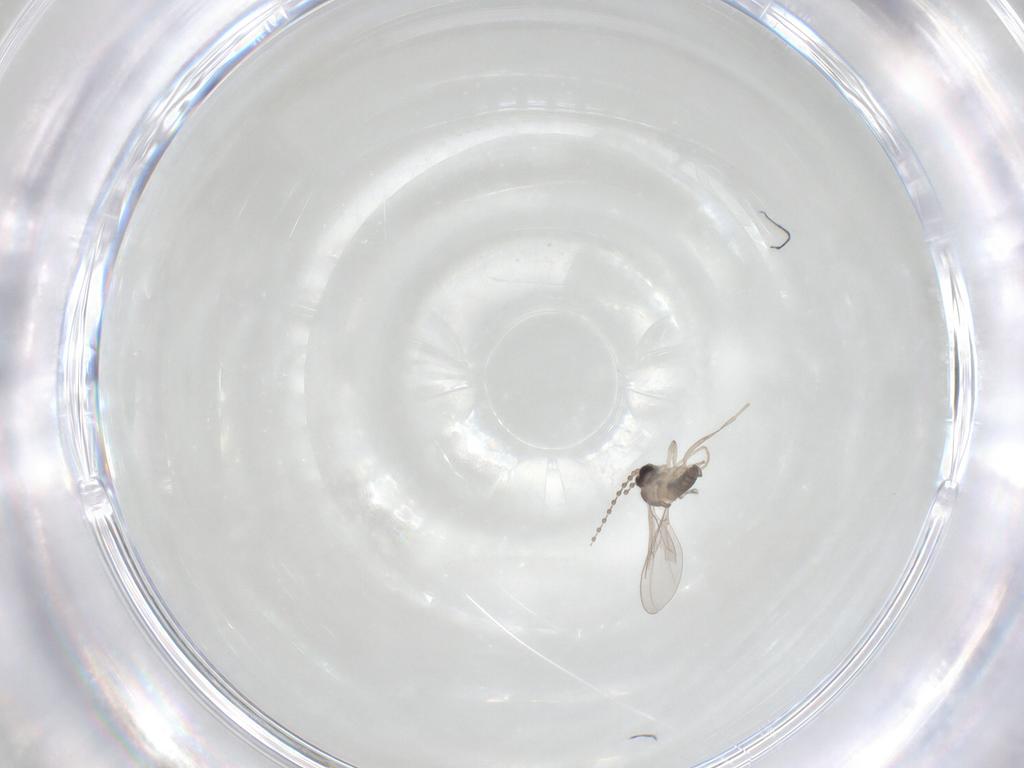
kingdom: Animalia
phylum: Arthropoda
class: Insecta
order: Diptera
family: Cecidomyiidae
